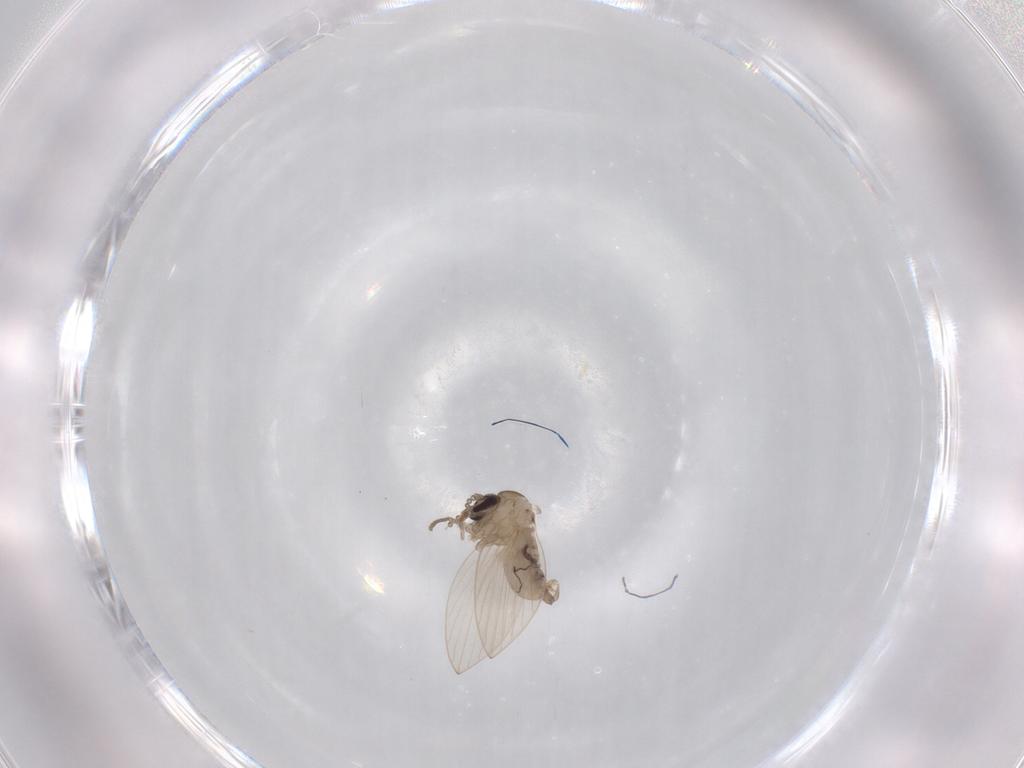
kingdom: Animalia
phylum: Arthropoda
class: Insecta
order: Diptera
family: Psychodidae
